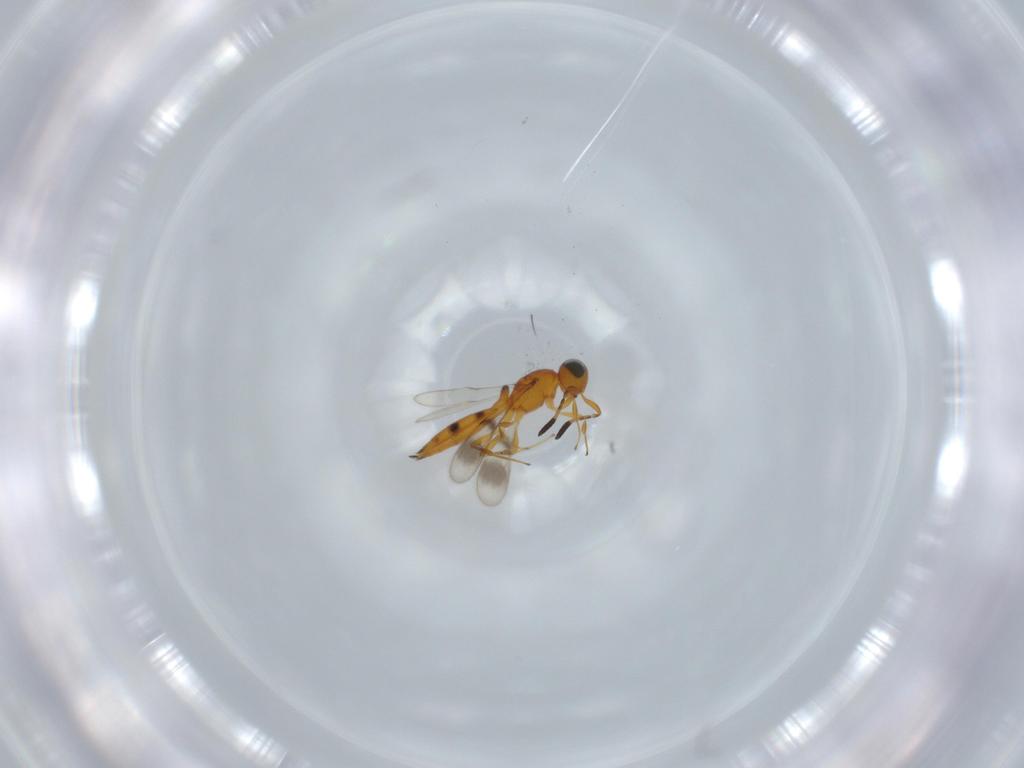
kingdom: Animalia
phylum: Arthropoda
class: Insecta
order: Hymenoptera
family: Scelionidae
